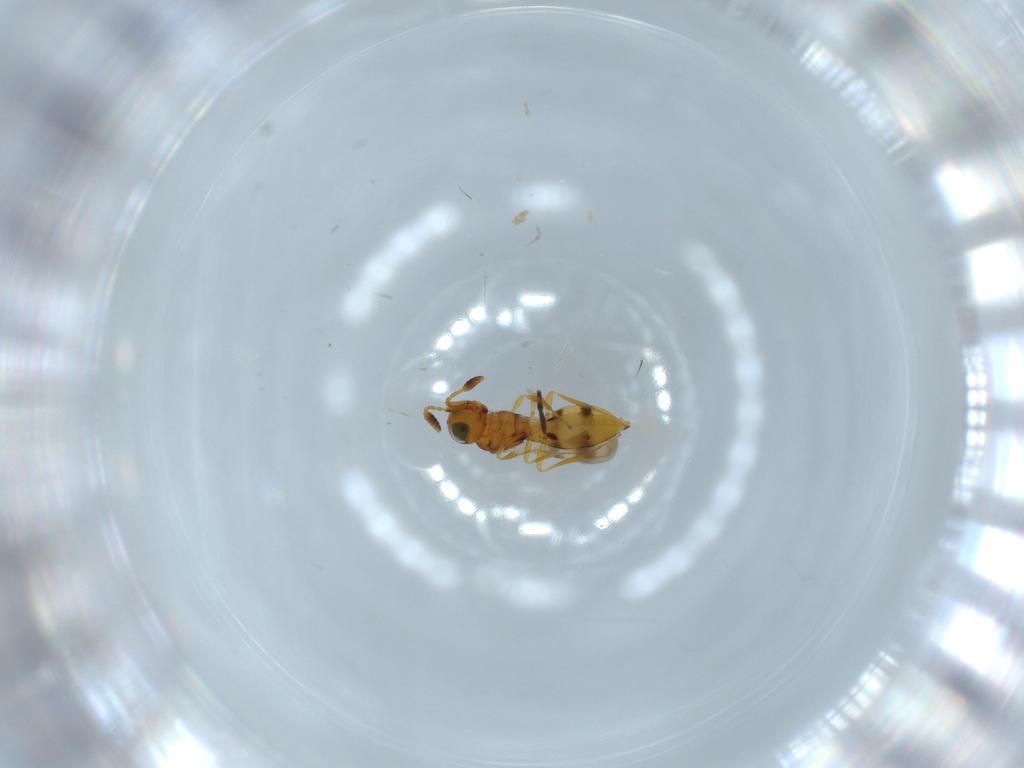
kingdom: Animalia
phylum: Arthropoda
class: Insecta
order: Hymenoptera
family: Scelionidae
